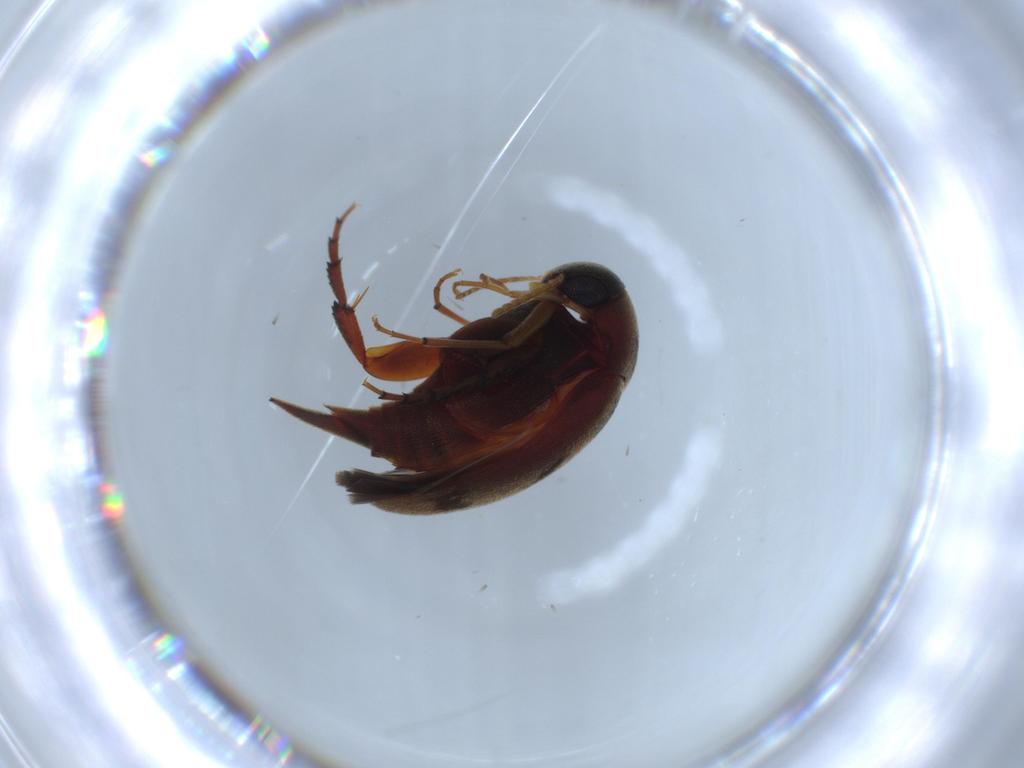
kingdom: Animalia
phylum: Arthropoda
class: Insecta
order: Coleoptera
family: Mordellidae
